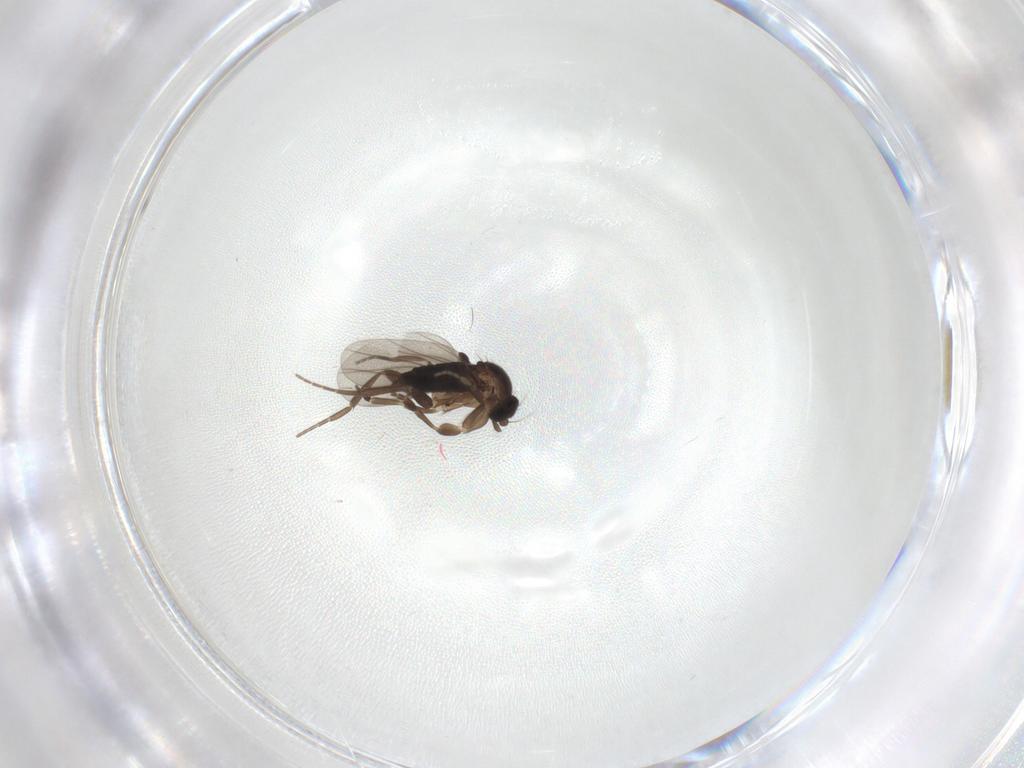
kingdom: Animalia
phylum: Arthropoda
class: Insecta
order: Diptera
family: Phoridae
